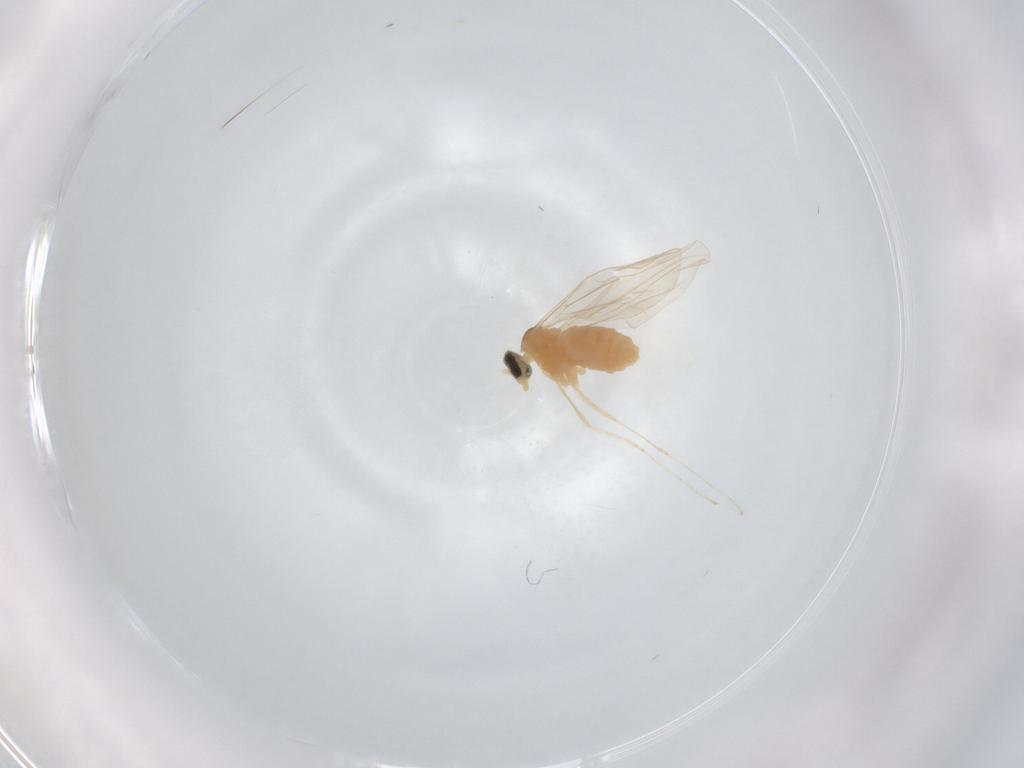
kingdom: Animalia
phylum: Arthropoda
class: Insecta
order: Diptera
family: Cecidomyiidae
